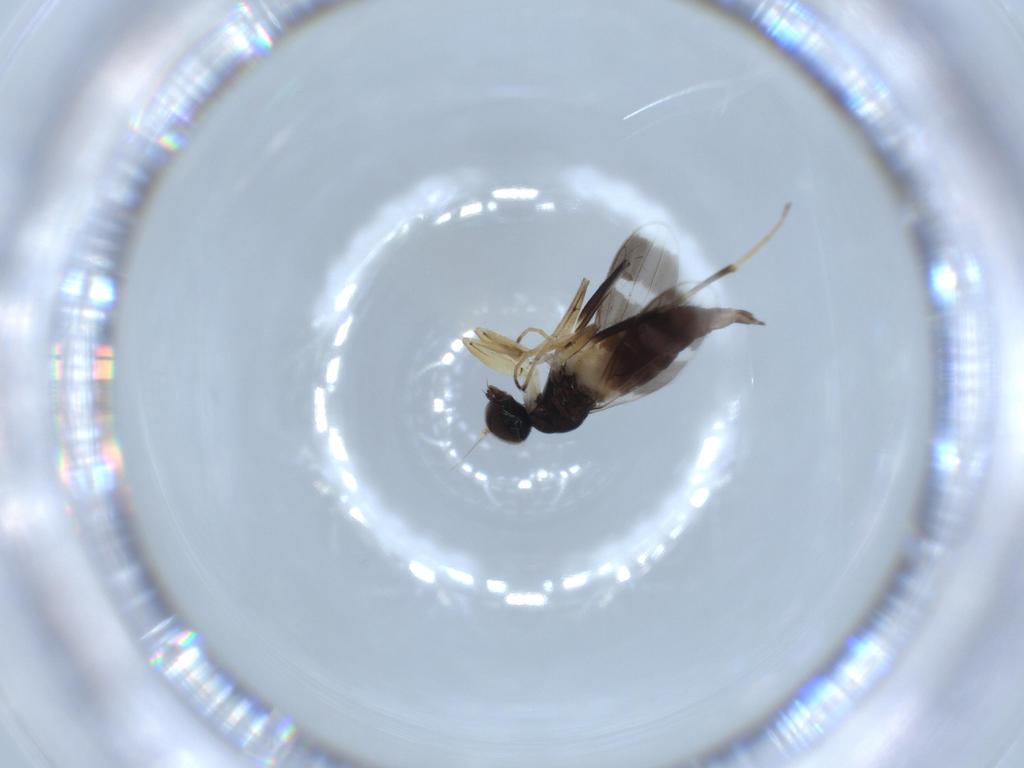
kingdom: Animalia
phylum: Arthropoda
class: Insecta
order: Diptera
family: Hybotidae
